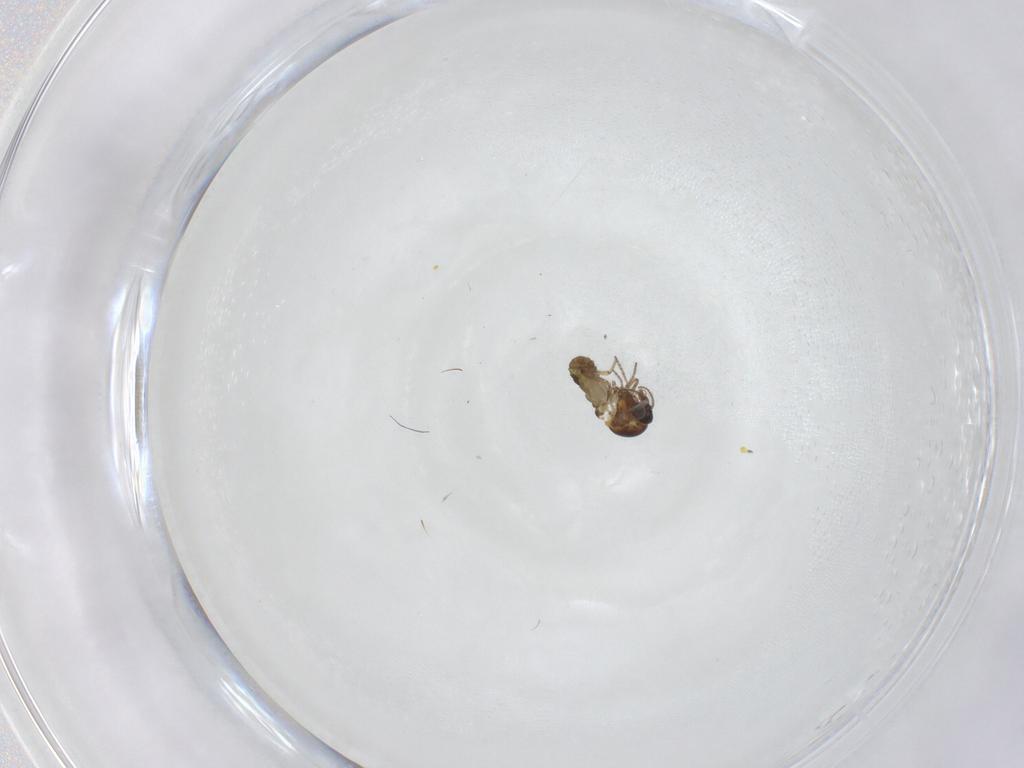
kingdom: Animalia
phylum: Arthropoda
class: Insecta
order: Diptera
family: Ceratopogonidae
